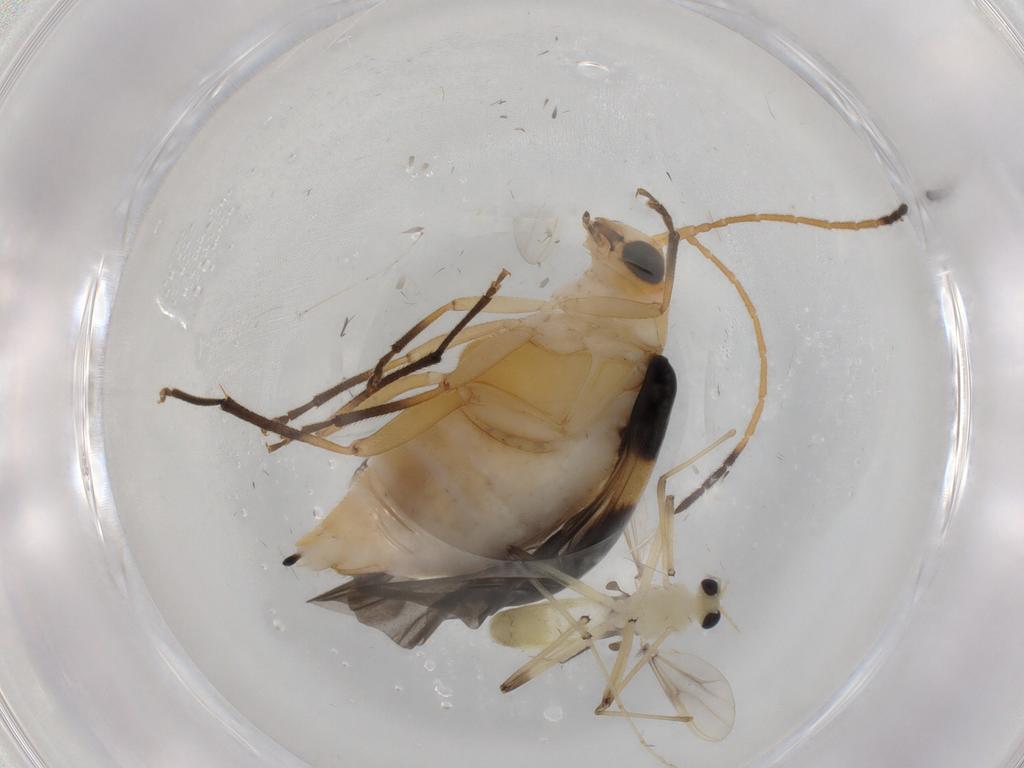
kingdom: Animalia
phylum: Arthropoda
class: Insecta
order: Coleoptera
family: Chrysomelidae
